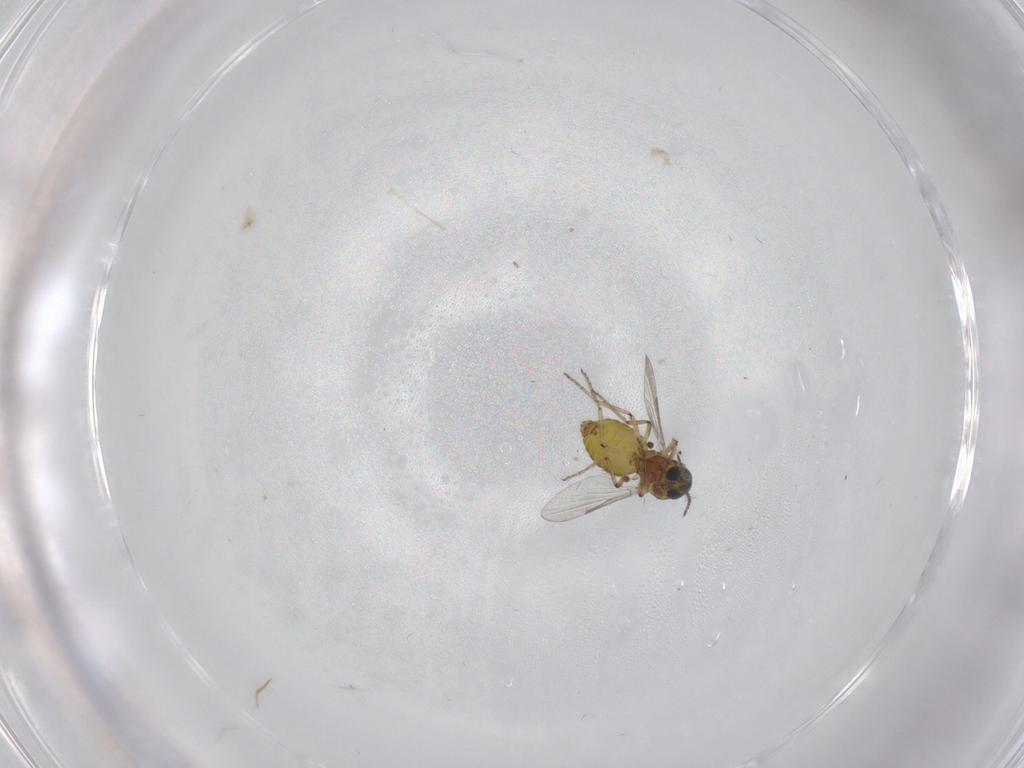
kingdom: Animalia
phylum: Arthropoda
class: Insecta
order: Diptera
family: Ceratopogonidae
